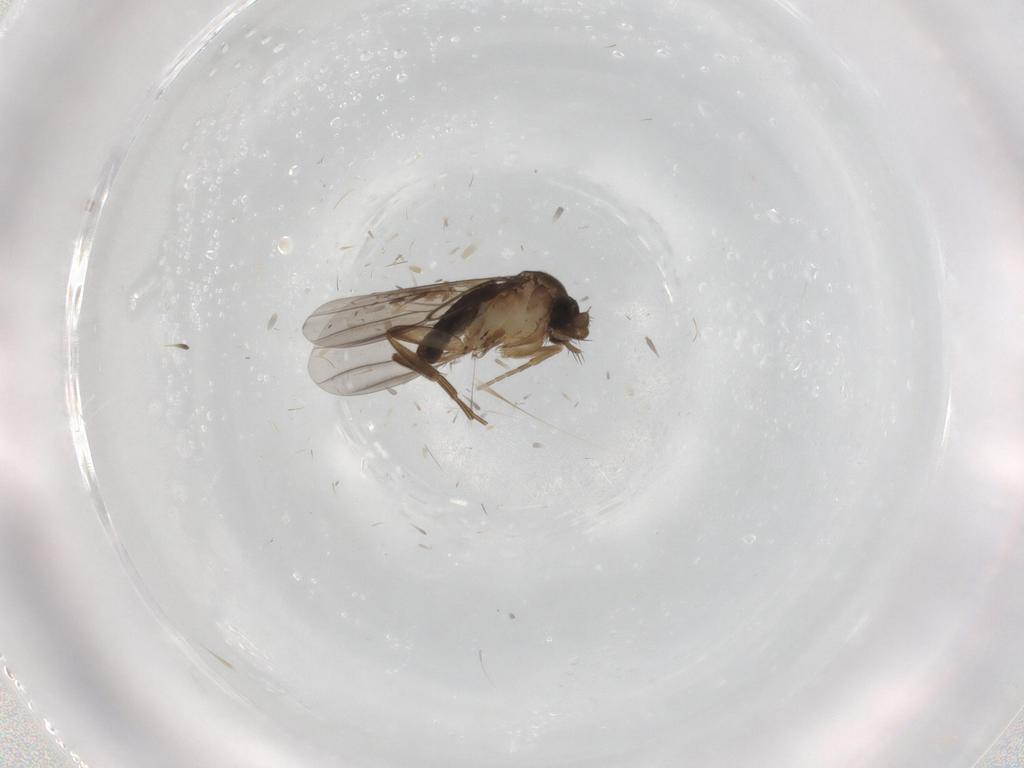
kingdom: Animalia
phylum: Arthropoda
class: Insecta
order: Diptera
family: Phoridae
